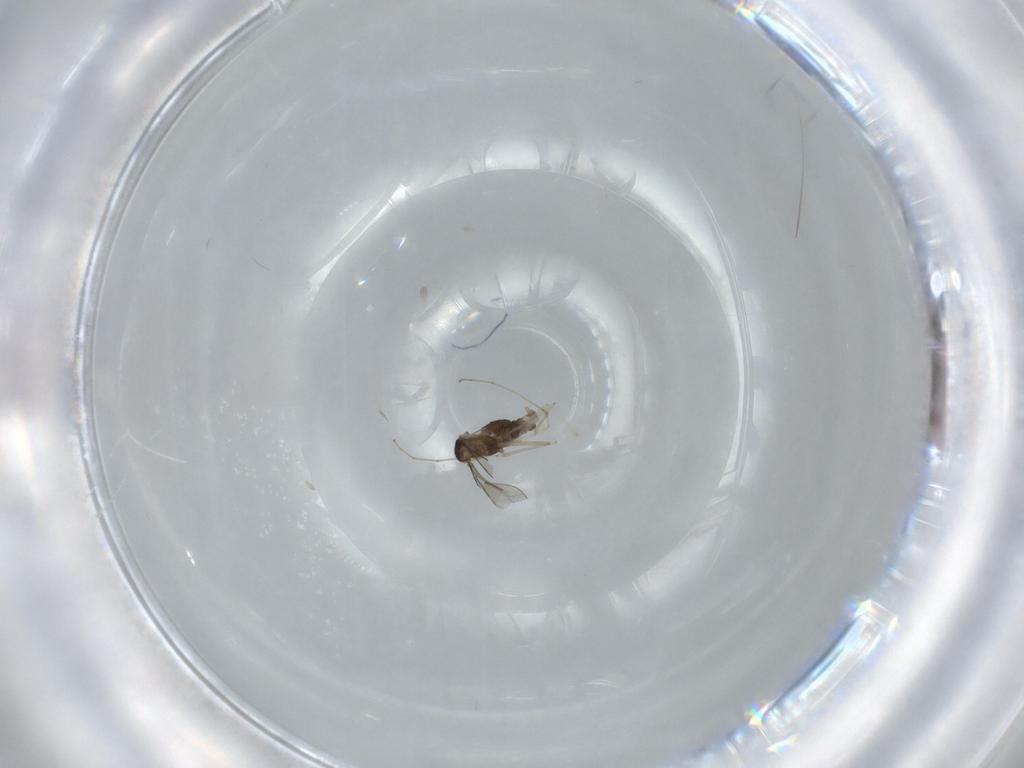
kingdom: Animalia
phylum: Arthropoda
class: Insecta
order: Diptera
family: Cecidomyiidae
